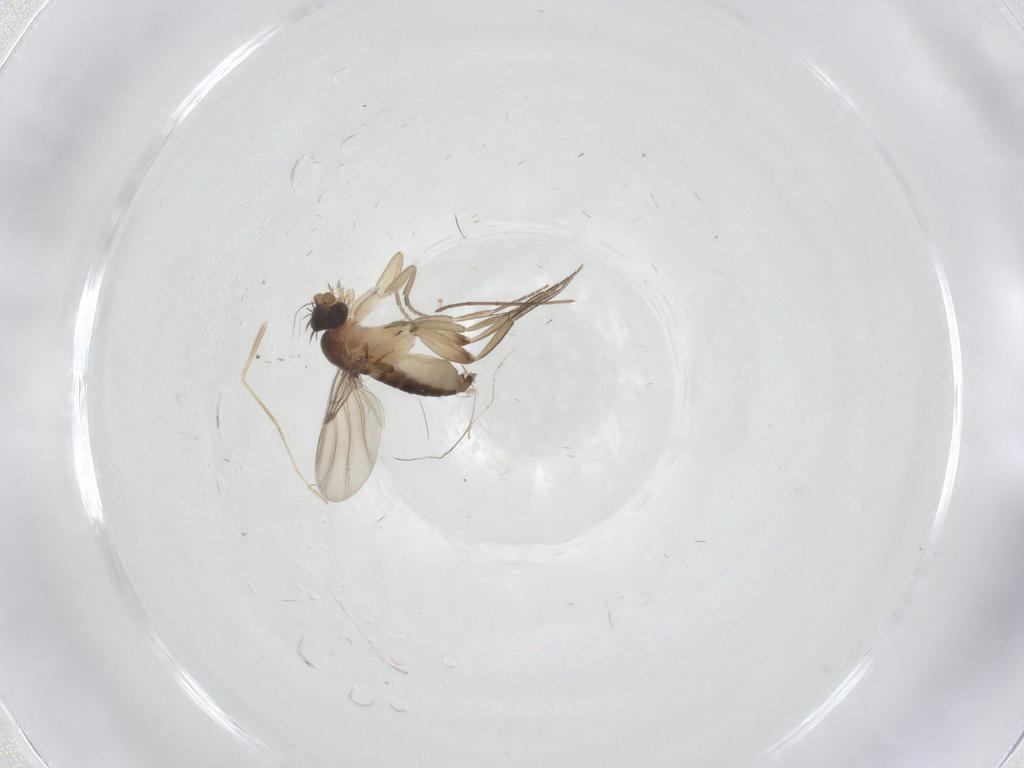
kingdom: Animalia
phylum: Arthropoda
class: Insecta
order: Diptera
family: Phoridae
